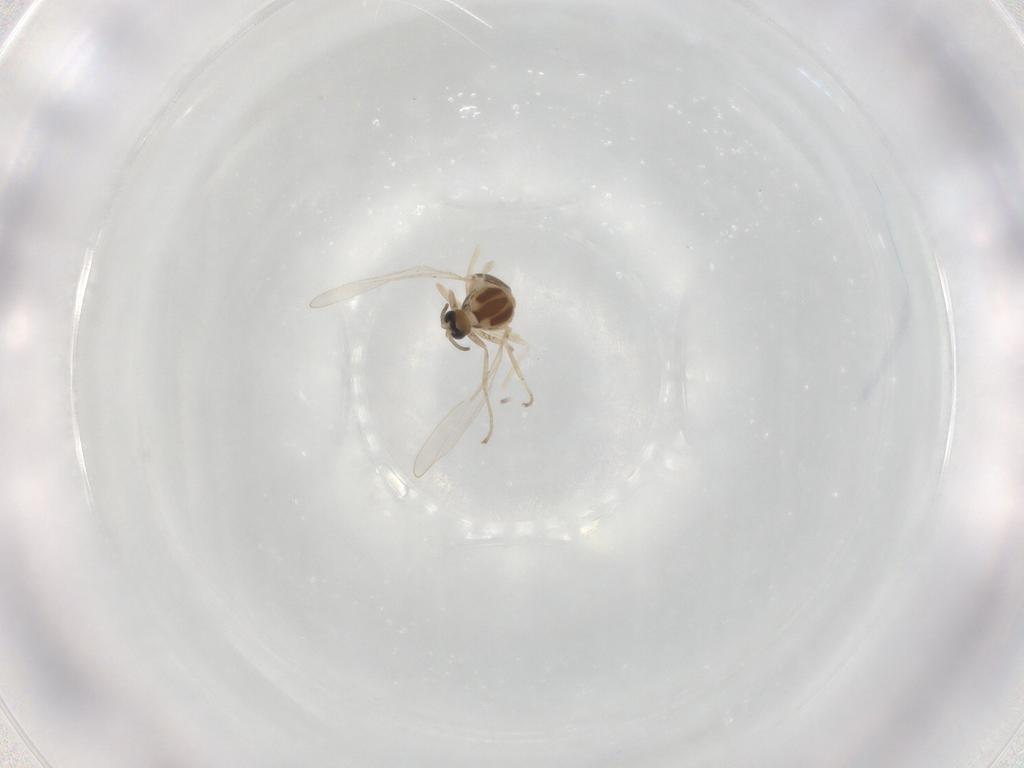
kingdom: Animalia
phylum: Arthropoda
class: Insecta
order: Diptera
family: Cecidomyiidae
